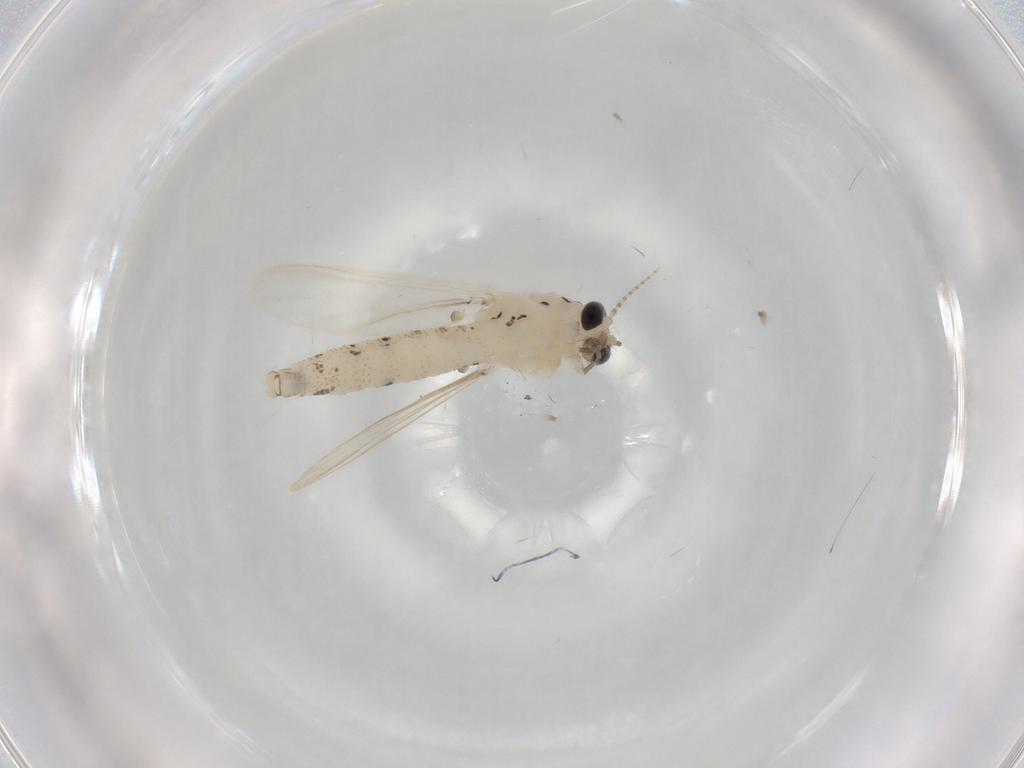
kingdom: Animalia
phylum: Arthropoda
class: Insecta
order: Diptera
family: Chaoboridae
